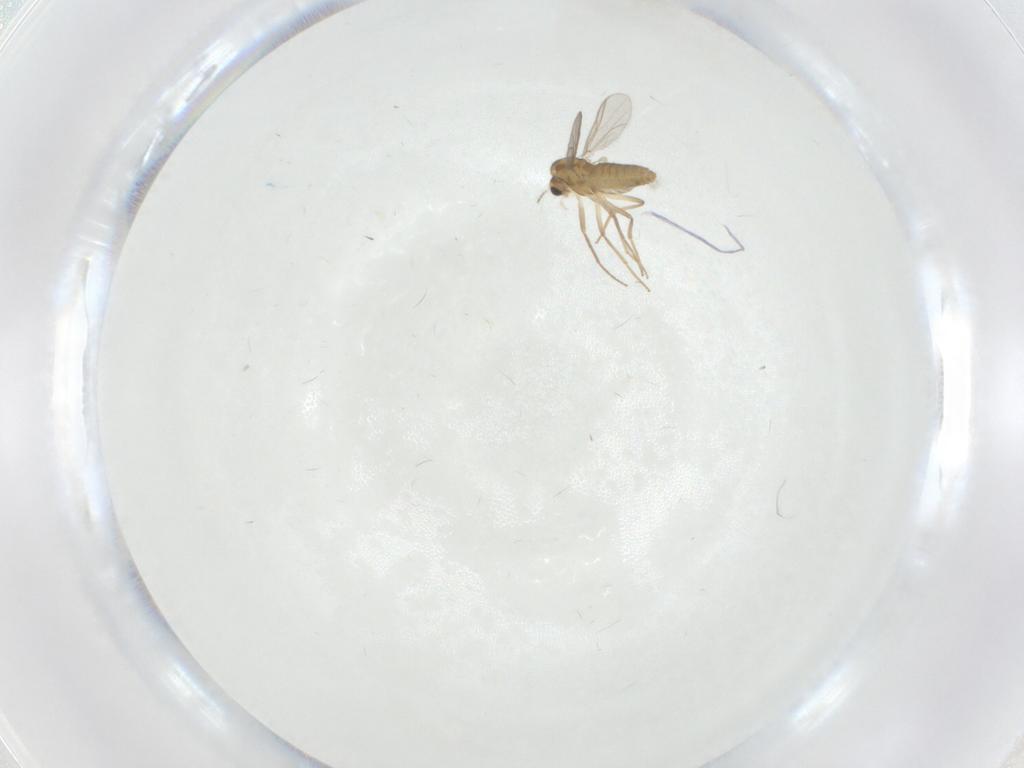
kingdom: Animalia
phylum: Arthropoda
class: Insecta
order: Diptera
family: Chironomidae
